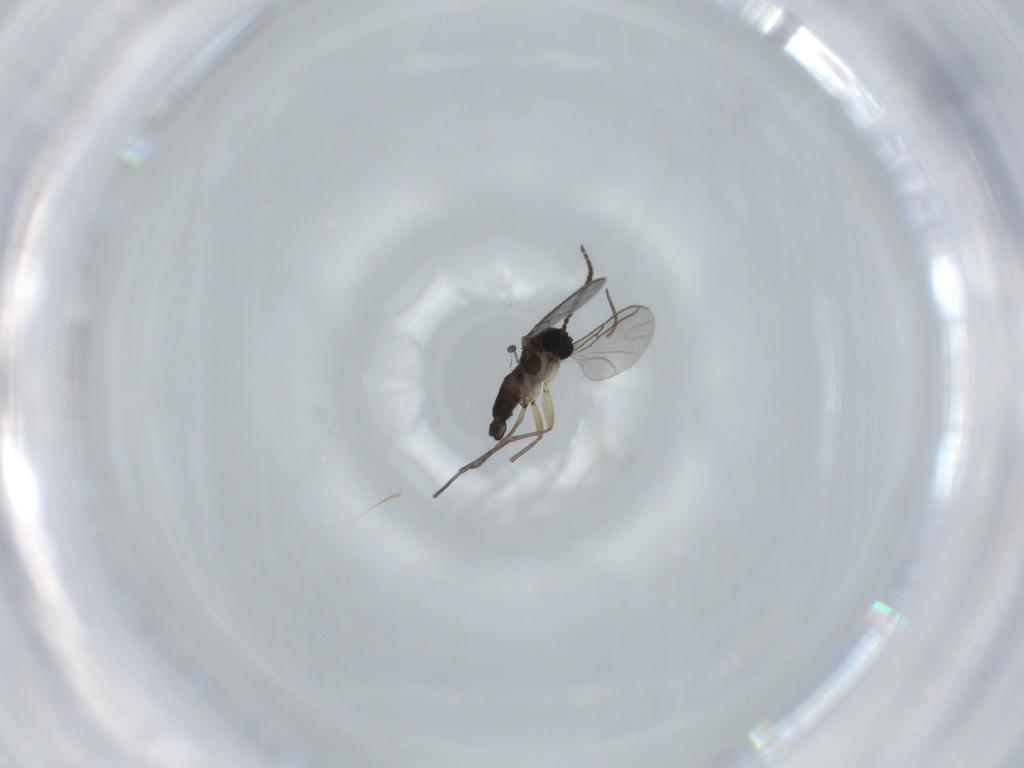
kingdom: Animalia
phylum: Arthropoda
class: Insecta
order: Diptera
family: Sciaridae
